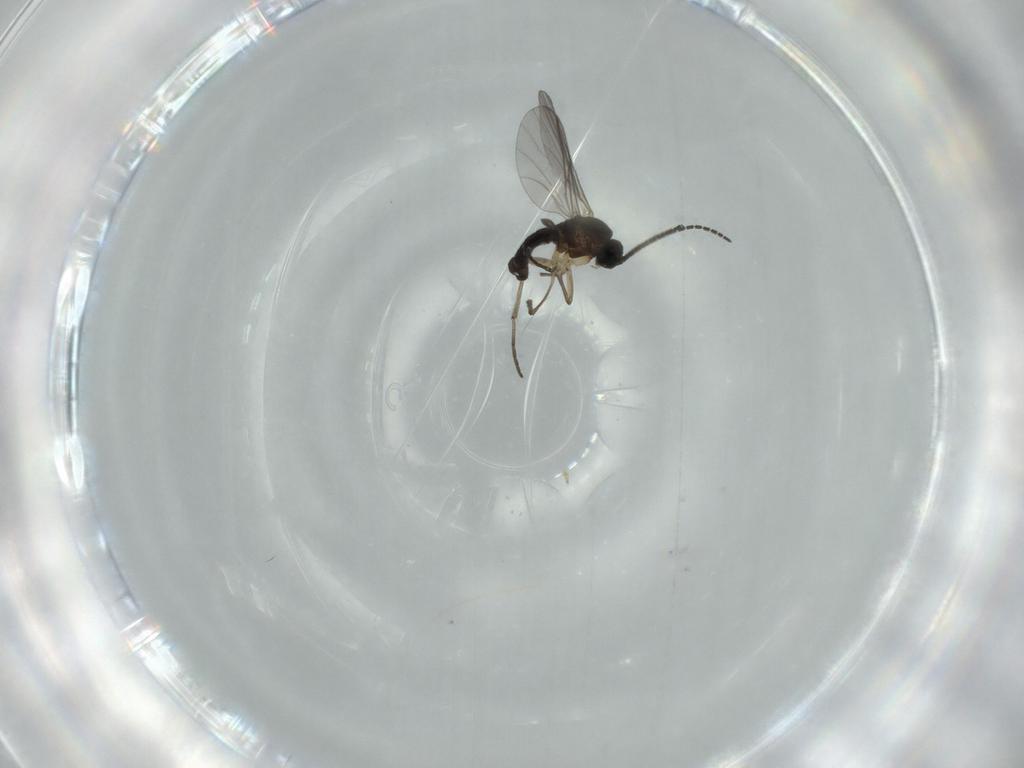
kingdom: Animalia
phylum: Arthropoda
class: Insecta
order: Diptera
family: Sciaridae
